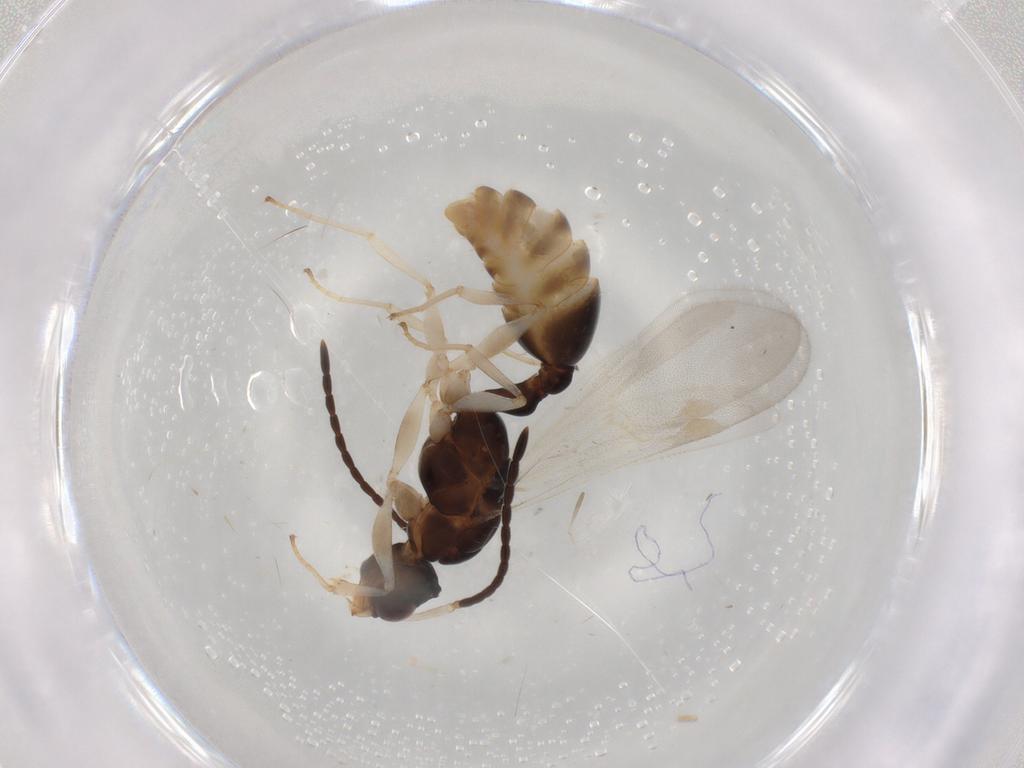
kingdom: Animalia
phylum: Arthropoda
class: Insecta
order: Hymenoptera
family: Formicidae
